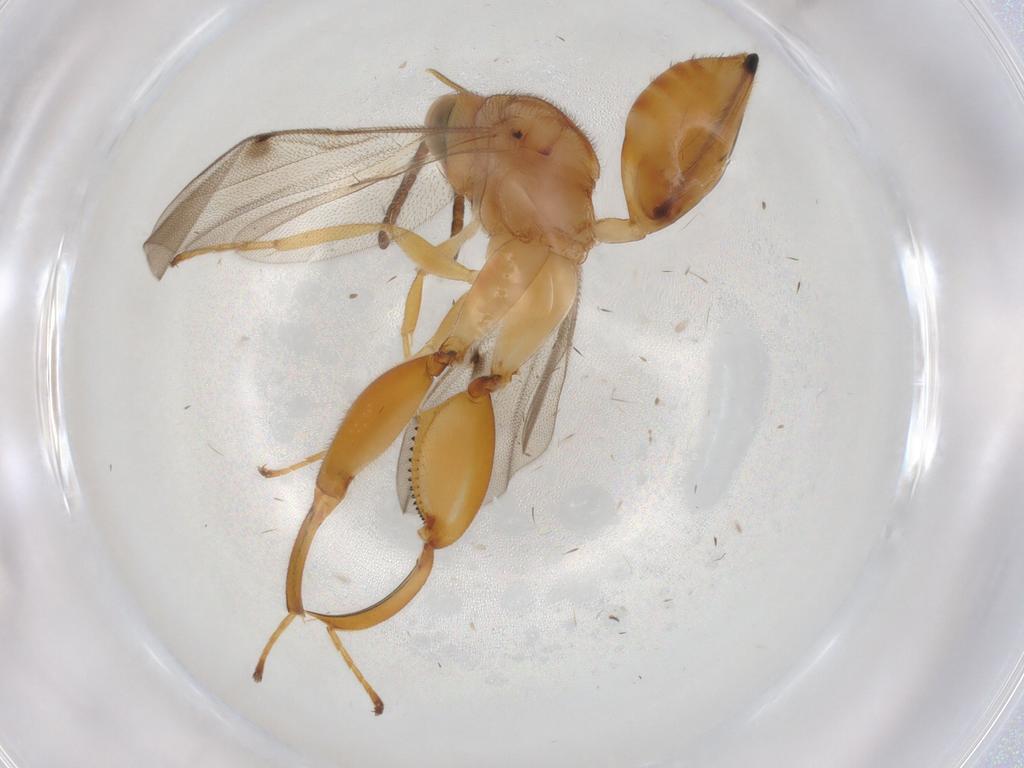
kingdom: Animalia
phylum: Arthropoda
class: Insecta
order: Hymenoptera
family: Chalcididae
